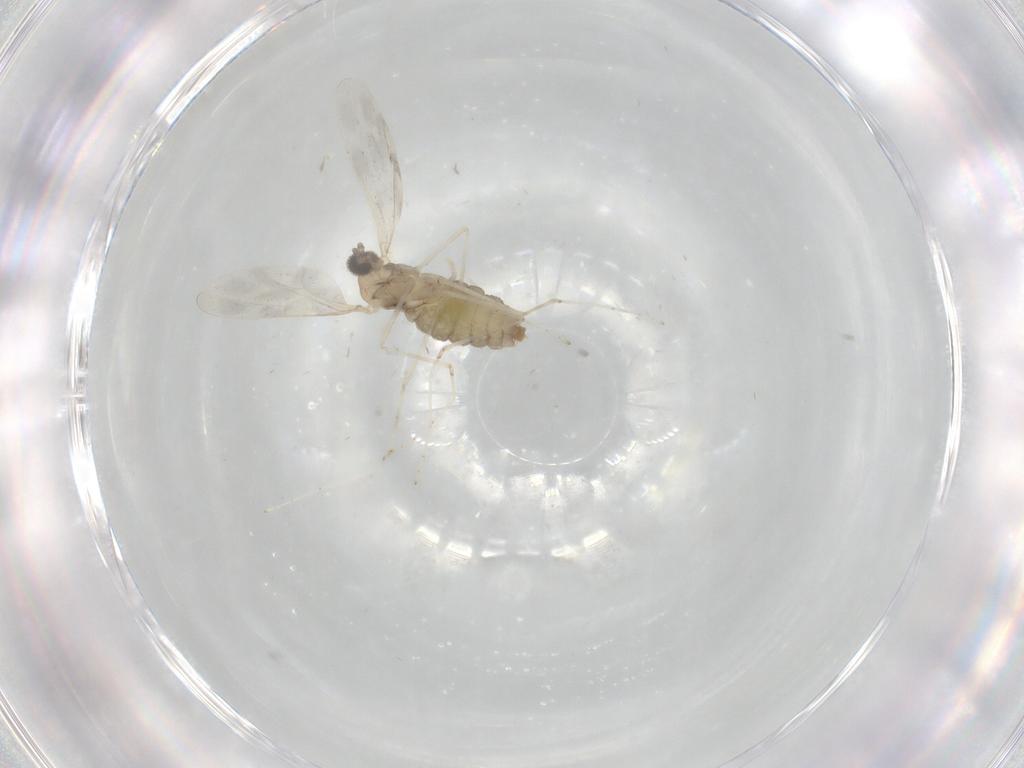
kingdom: Animalia
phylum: Arthropoda
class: Insecta
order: Diptera
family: Cecidomyiidae
